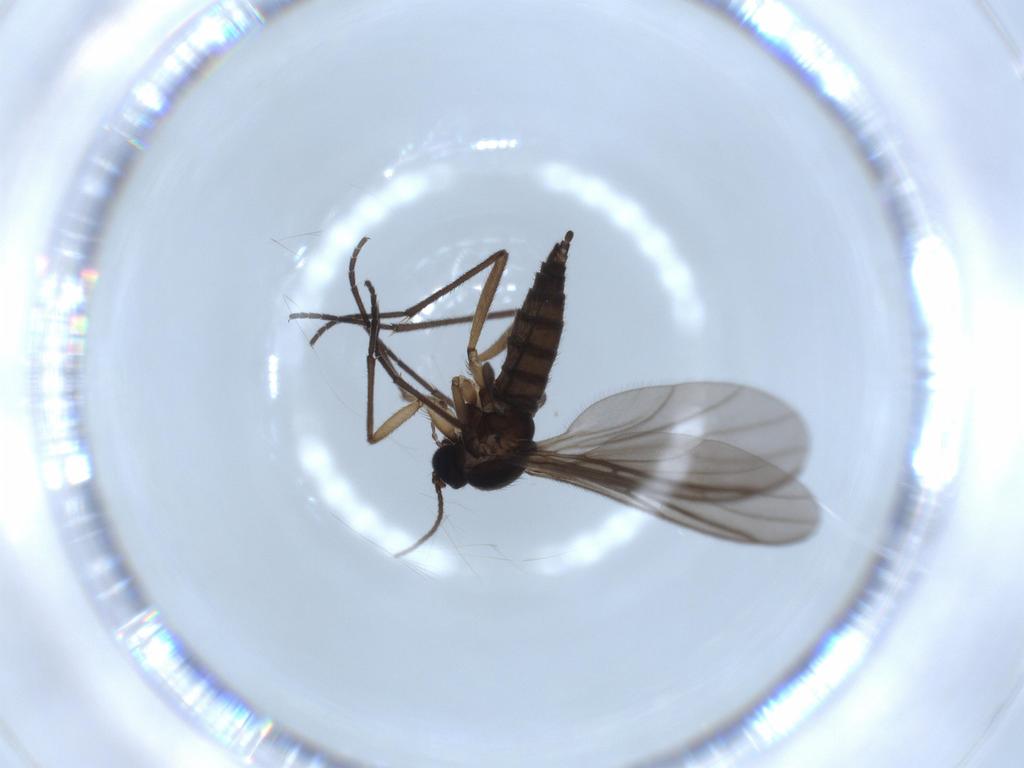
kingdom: Animalia
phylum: Arthropoda
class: Insecta
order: Diptera
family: Sciaridae
